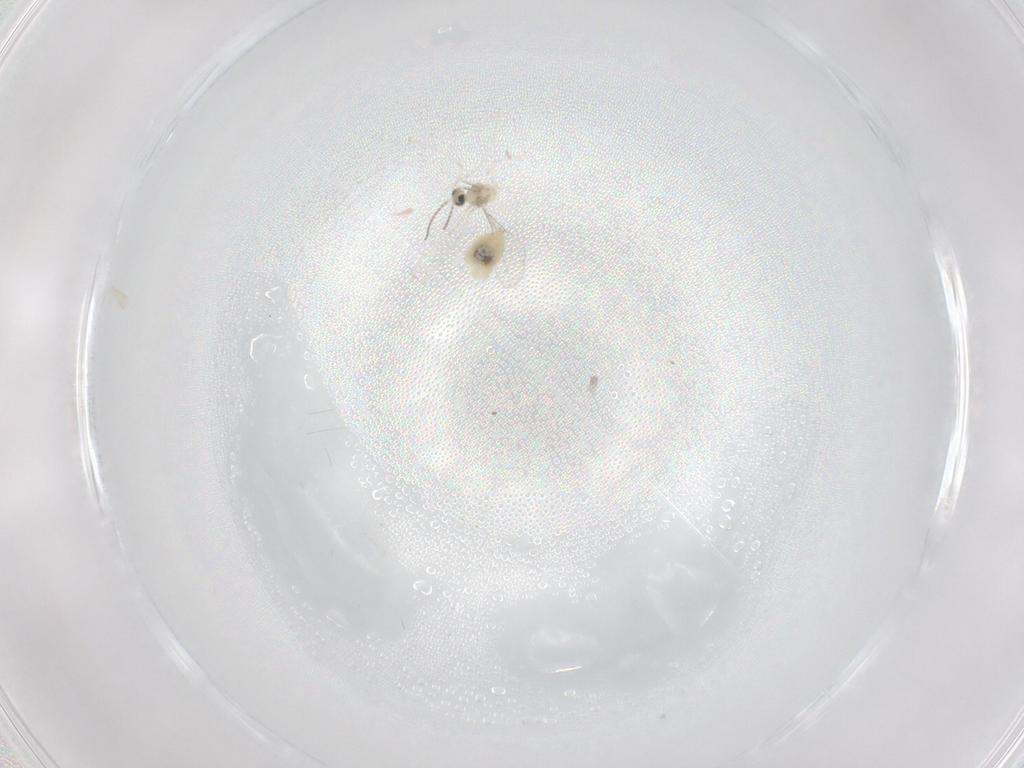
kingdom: Animalia
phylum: Arthropoda
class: Insecta
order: Diptera
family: Cecidomyiidae
